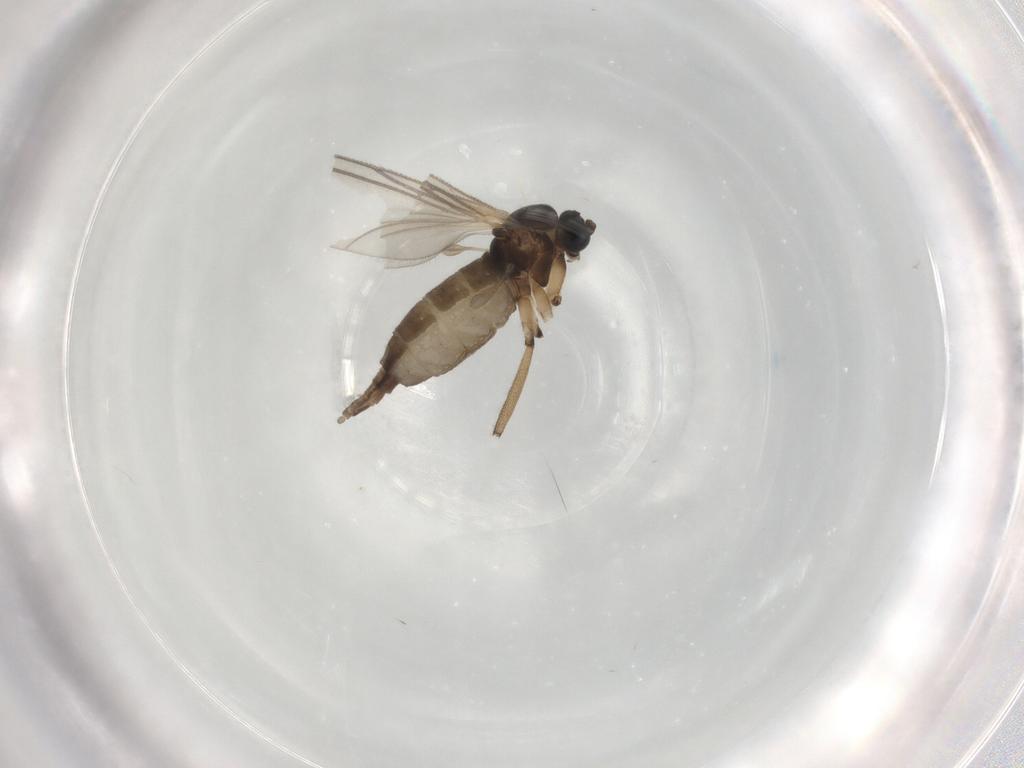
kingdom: Animalia
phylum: Arthropoda
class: Insecta
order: Diptera
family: Sciaridae
